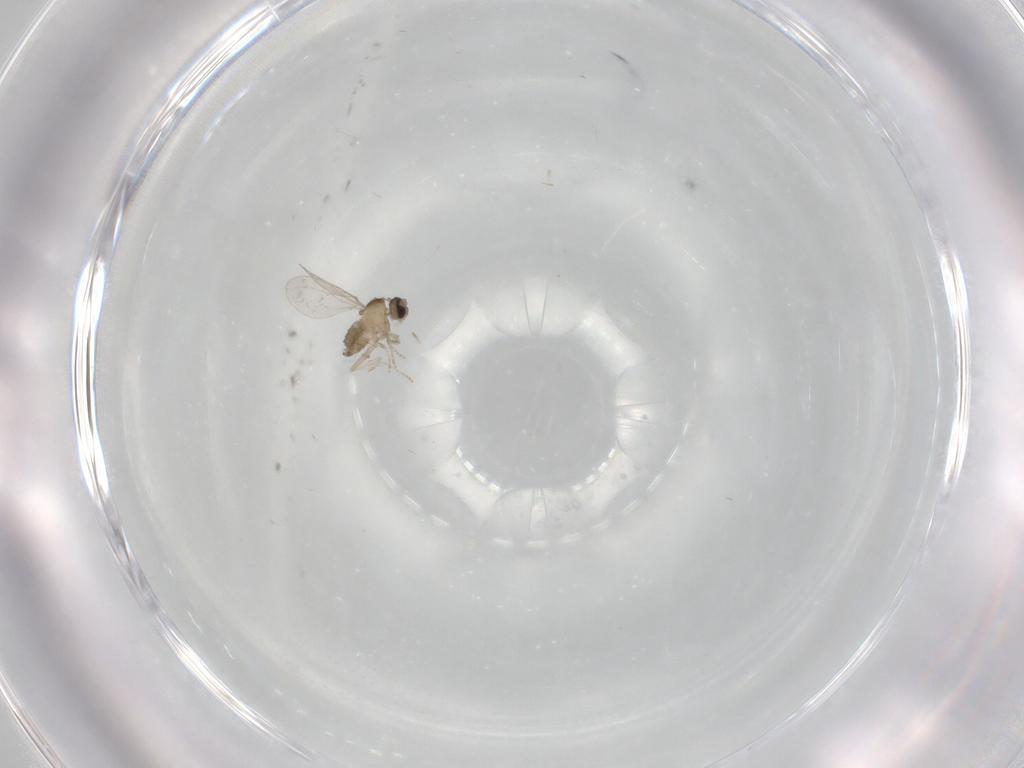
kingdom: Animalia
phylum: Arthropoda
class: Insecta
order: Diptera
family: Cecidomyiidae
